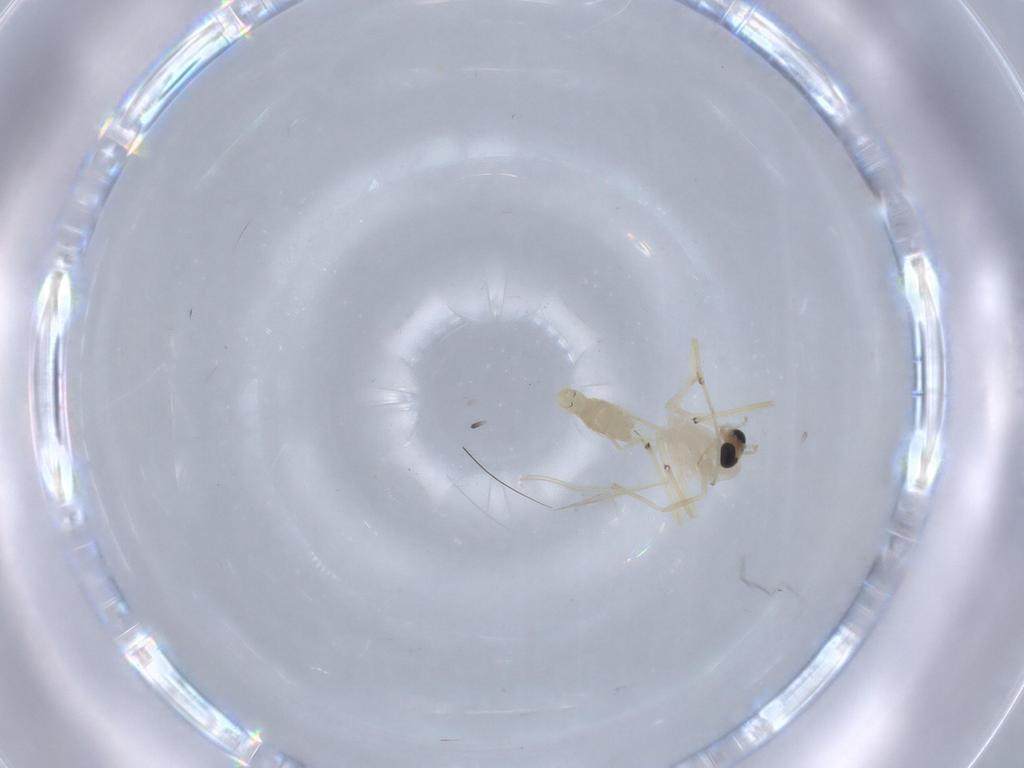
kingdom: Animalia
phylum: Arthropoda
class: Insecta
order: Diptera
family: Chironomidae
